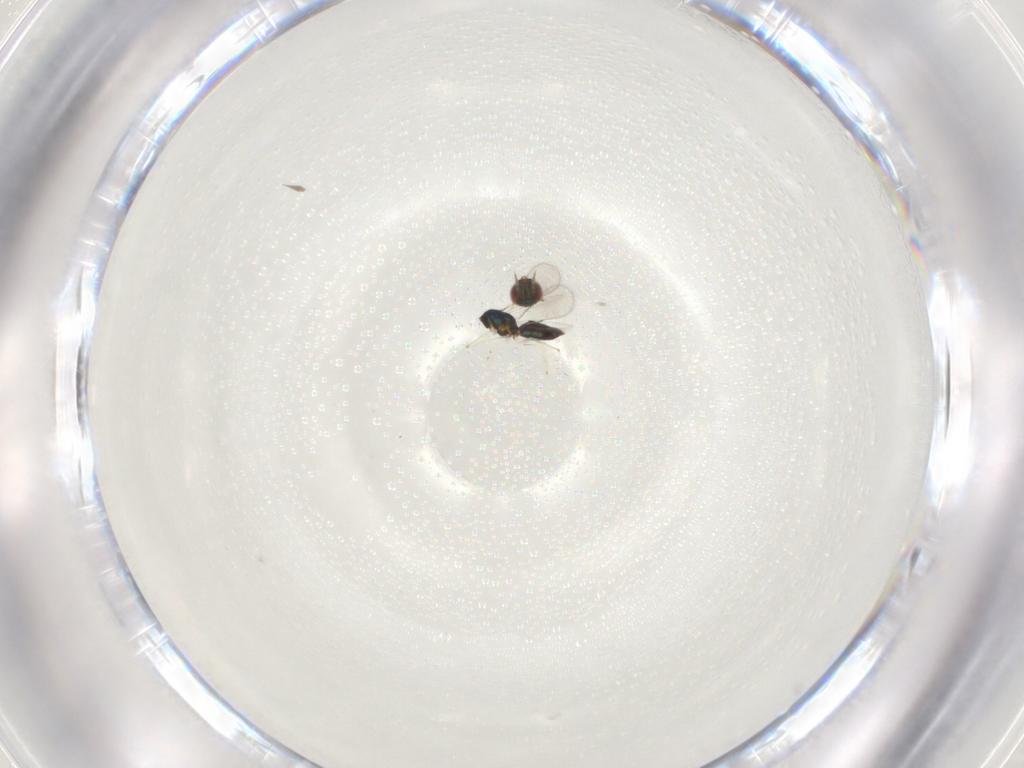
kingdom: Animalia
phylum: Arthropoda
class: Insecta
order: Hymenoptera
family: Eulophidae
